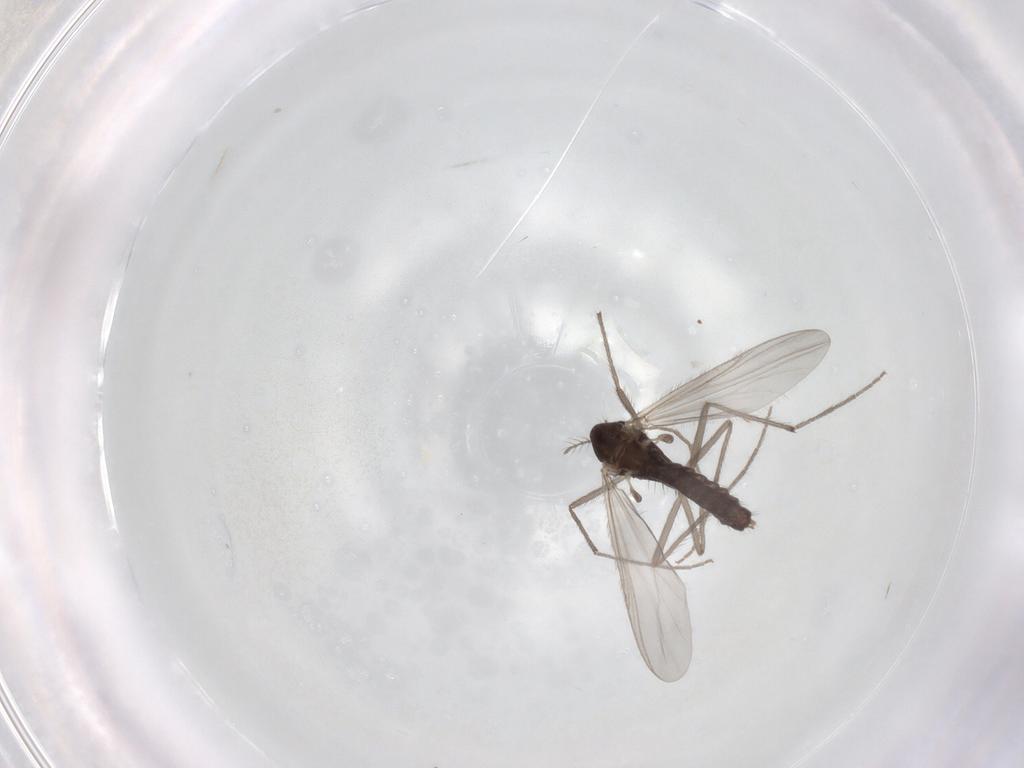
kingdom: Animalia
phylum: Arthropoda
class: Insecta
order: Diptera
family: Chironomidae
